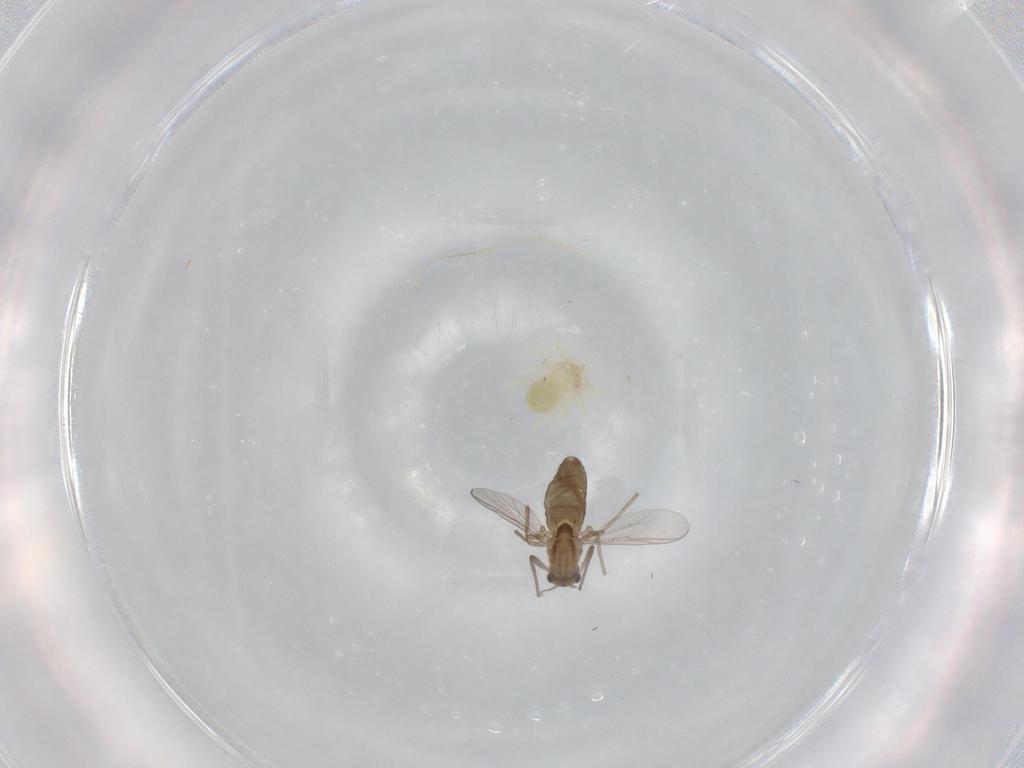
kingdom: Animalia
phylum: Arthropoda
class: Insecta
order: Diptera
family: Chironomidae
